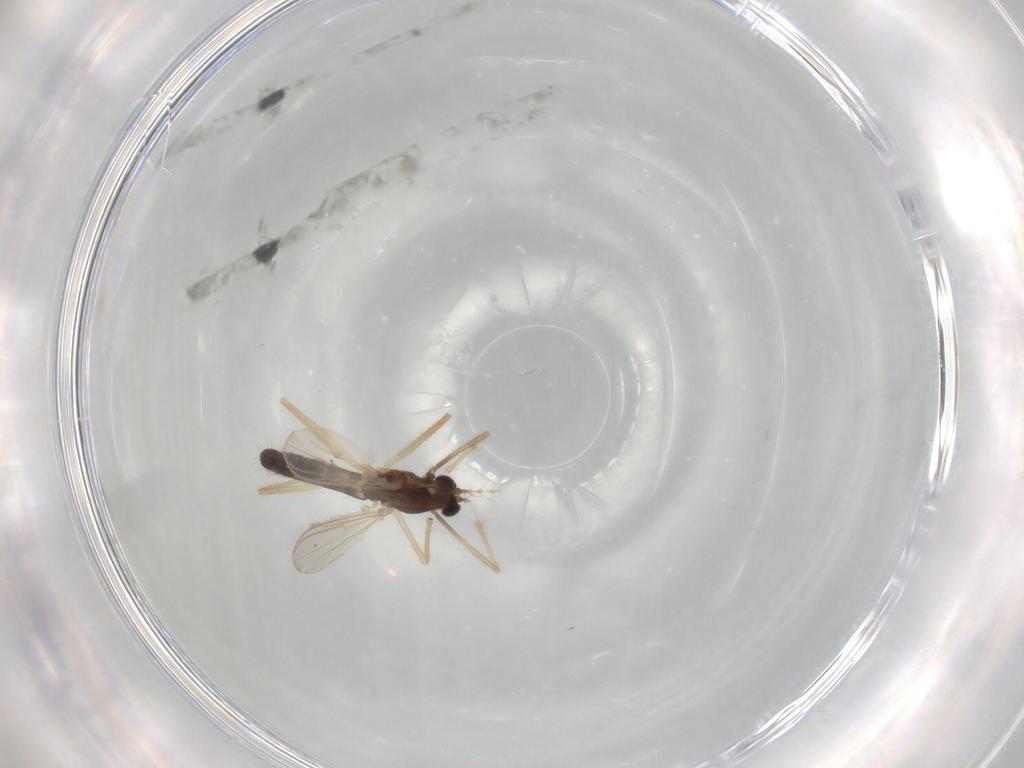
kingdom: Animalia
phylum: Arthropoda
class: Insecta
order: Diptera
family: Chironomidae
